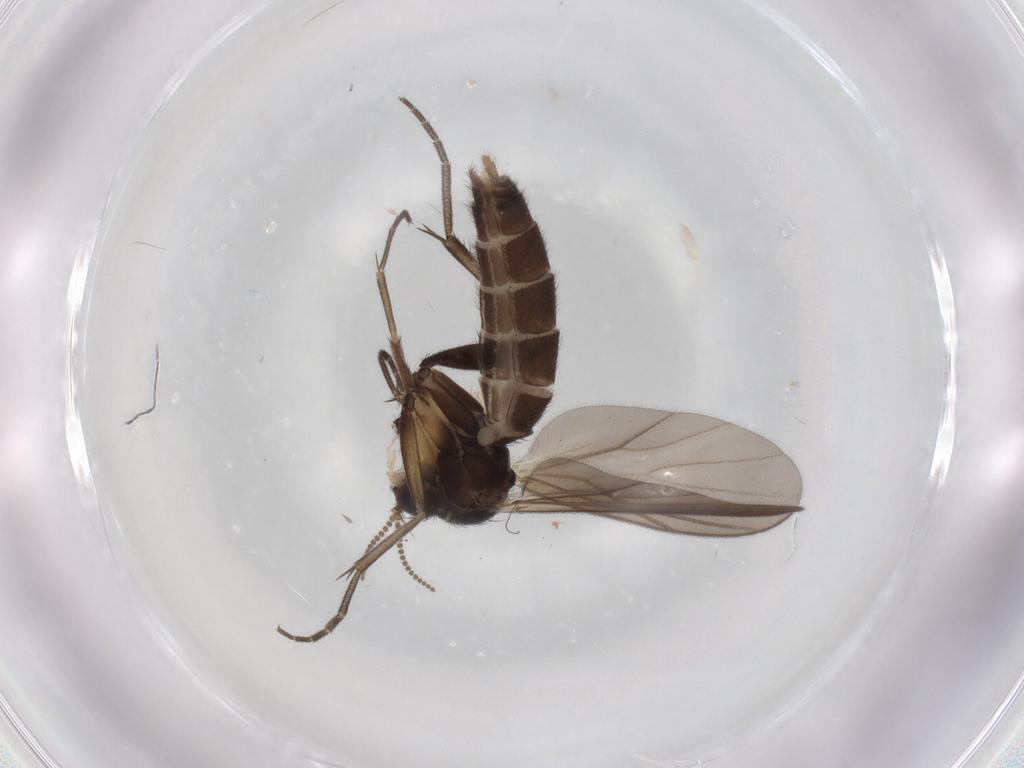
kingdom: Animalia
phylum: Arthropoda
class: Insecta
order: Diptera
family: Mycetophilidae
